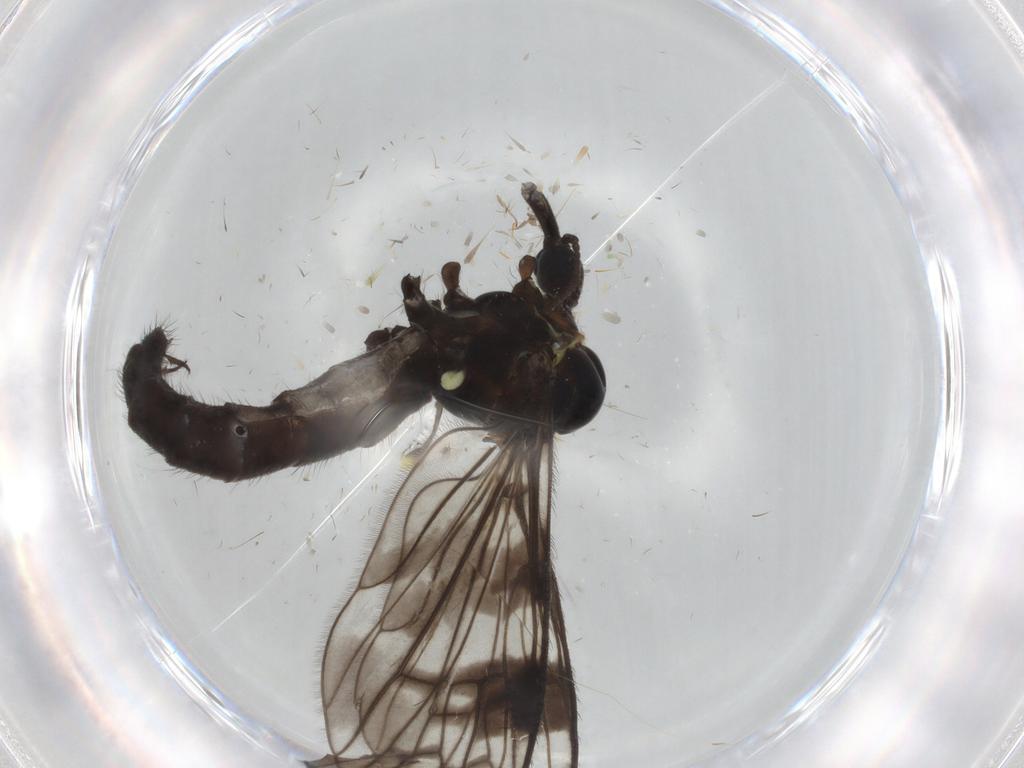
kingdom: Animalia
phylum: Arthropoda
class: Insecta
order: Diptera
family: Limoniidae
